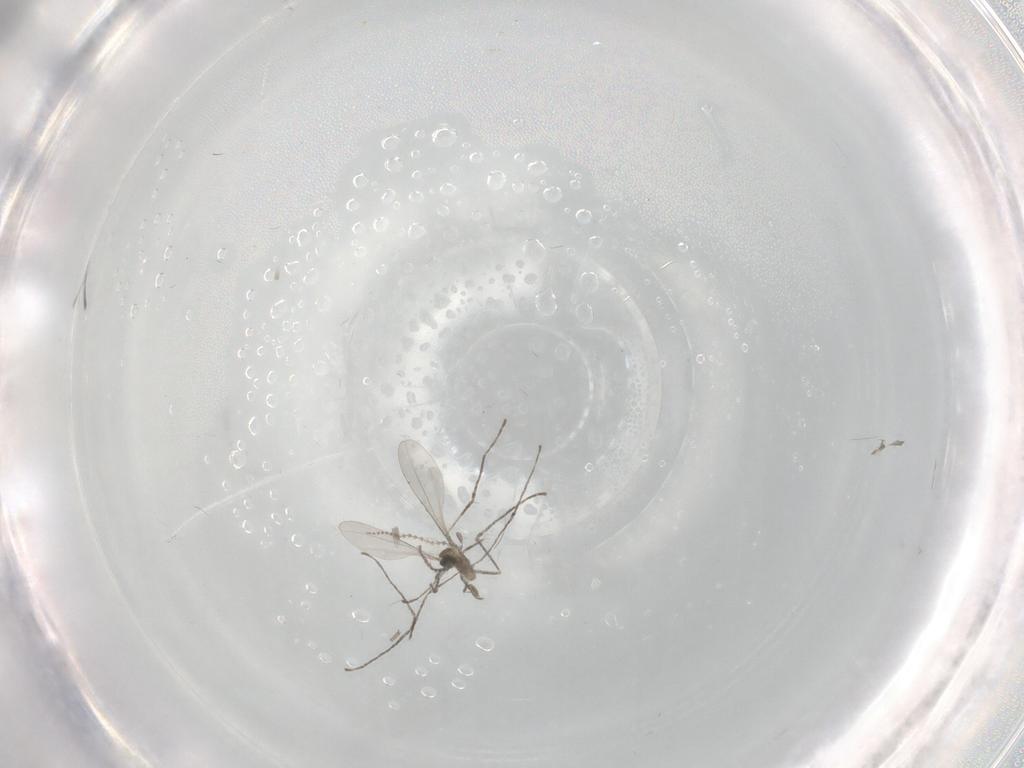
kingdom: Animalia
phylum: Arthropoda
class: Insecta
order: Diptera
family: Chironomidae
